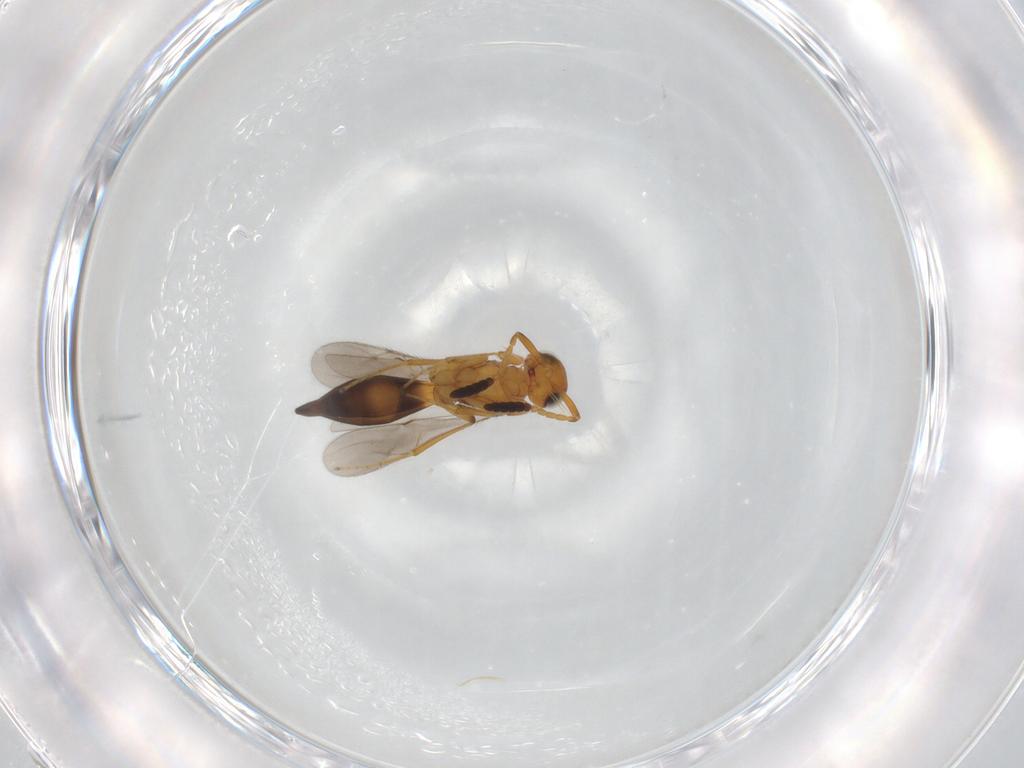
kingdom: Animalia
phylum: Arthropoda
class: Insecta
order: Hymenoptera
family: Scelionidae
